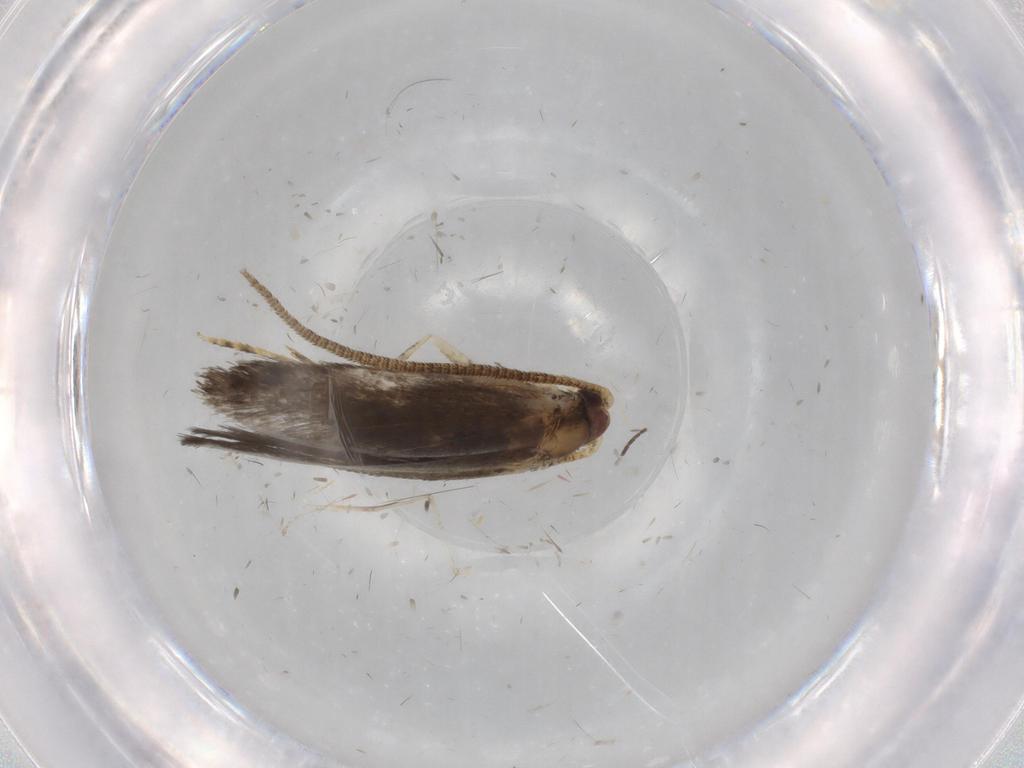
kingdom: Animalia
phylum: Arthropoda
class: Insecta
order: Lepidoptera
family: Tineidae
